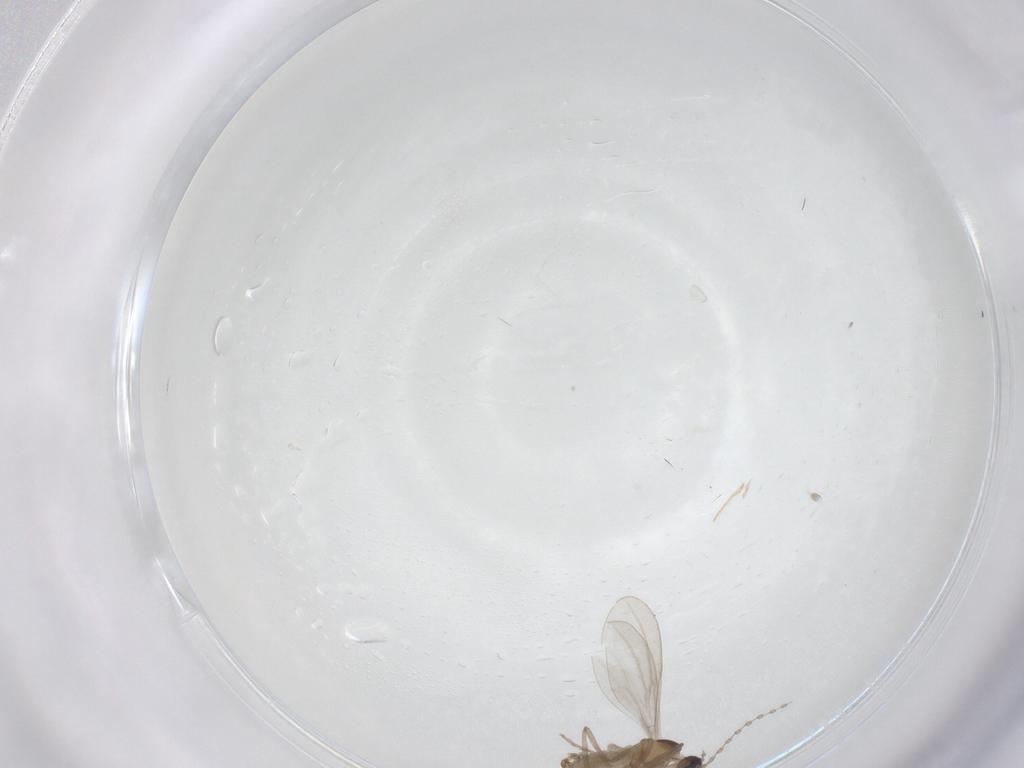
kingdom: Animalia
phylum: Arthropoda
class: Insecta
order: Diptera
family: Cecidomyiidae
